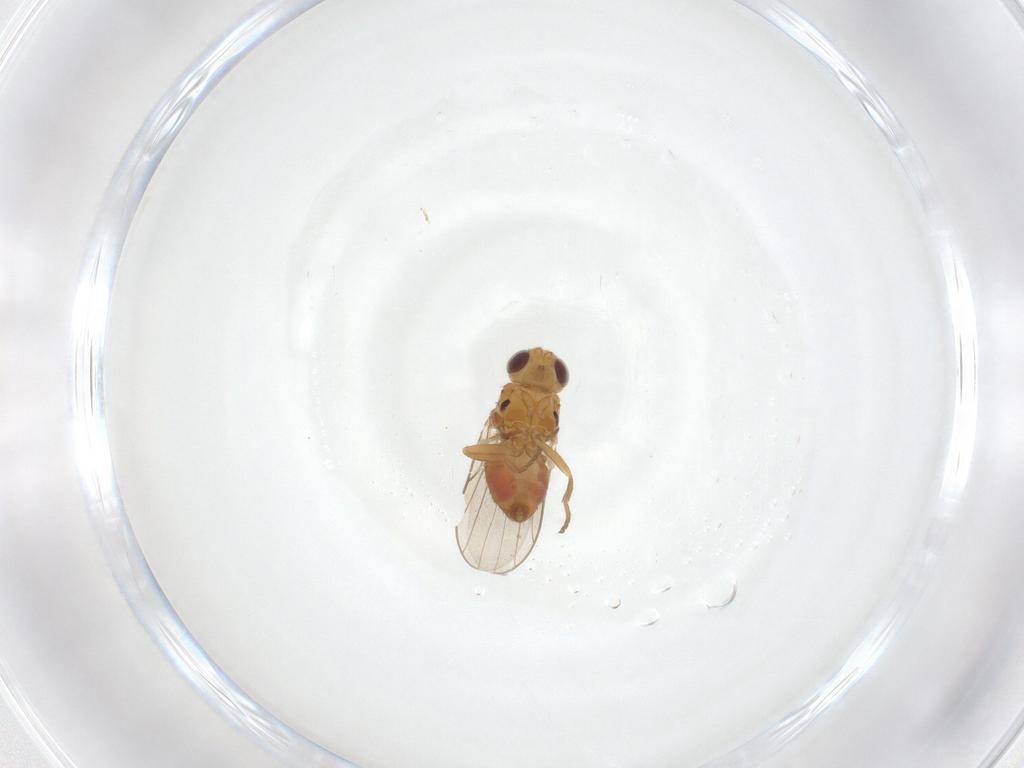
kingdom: Animalia
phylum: Arthropoda
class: Insecta
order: Diptera
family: Chloropidae
